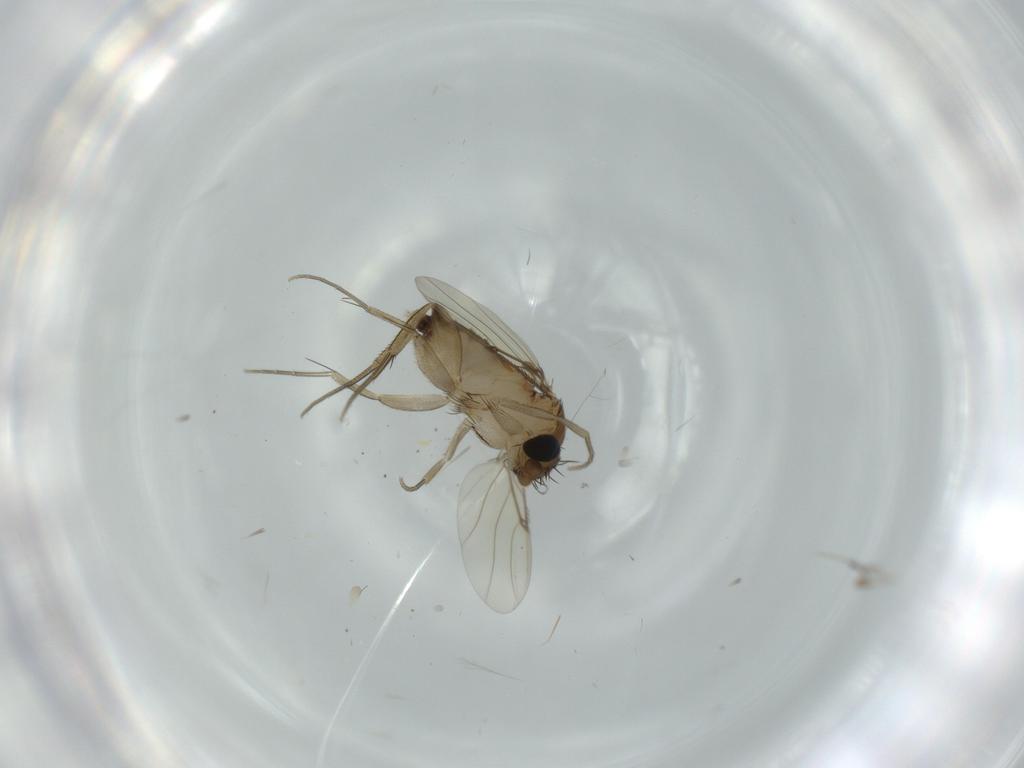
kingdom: Animalia
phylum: Arthropoda
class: Insecta
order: Diptera
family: Phoridae
